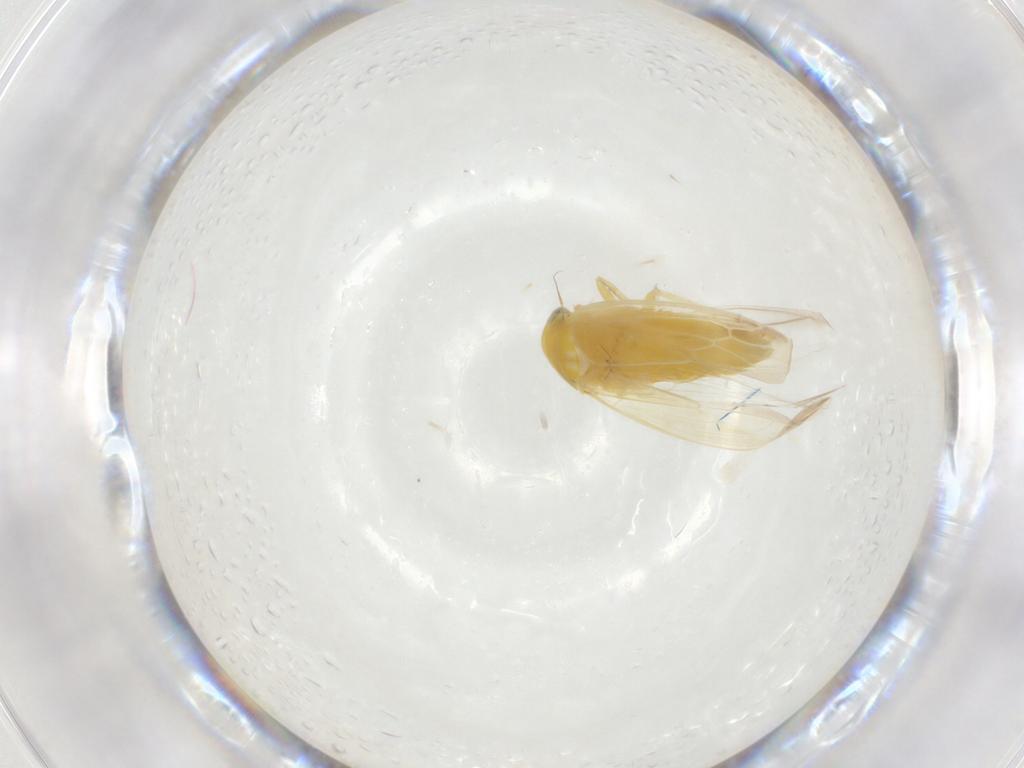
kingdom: Animalia
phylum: Arthropoda
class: Insecta
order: Hemiptera
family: Cicadellidae
